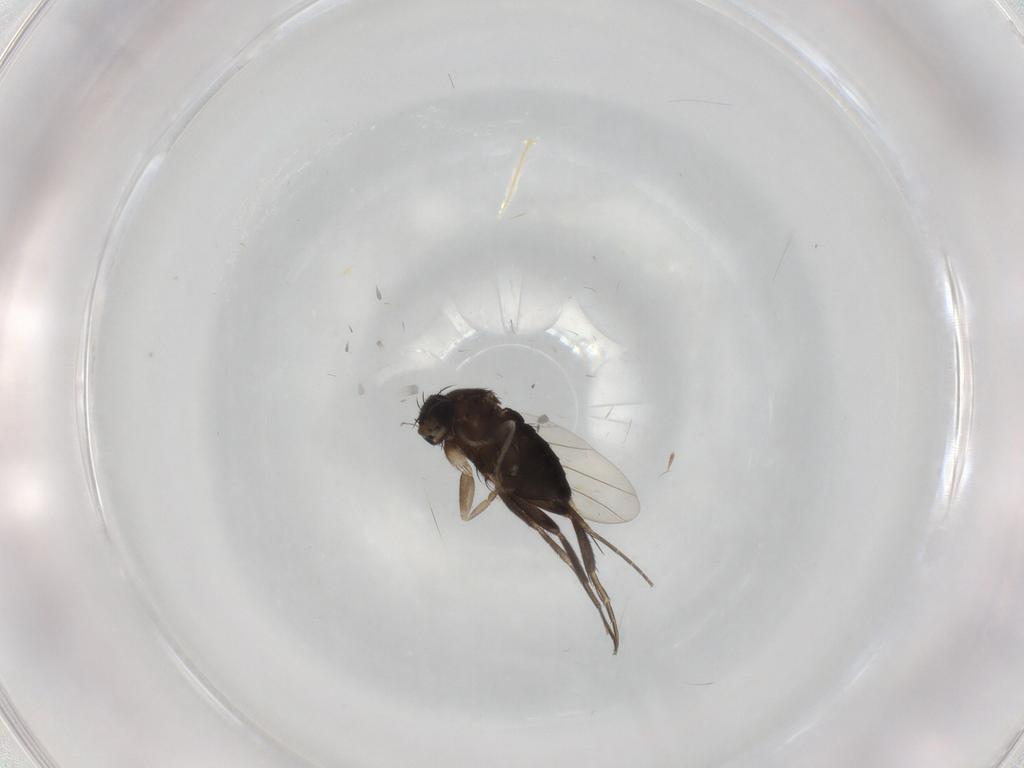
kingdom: Animalia
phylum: Arthropoda
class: Insecta
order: Diptera
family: Phoridae
